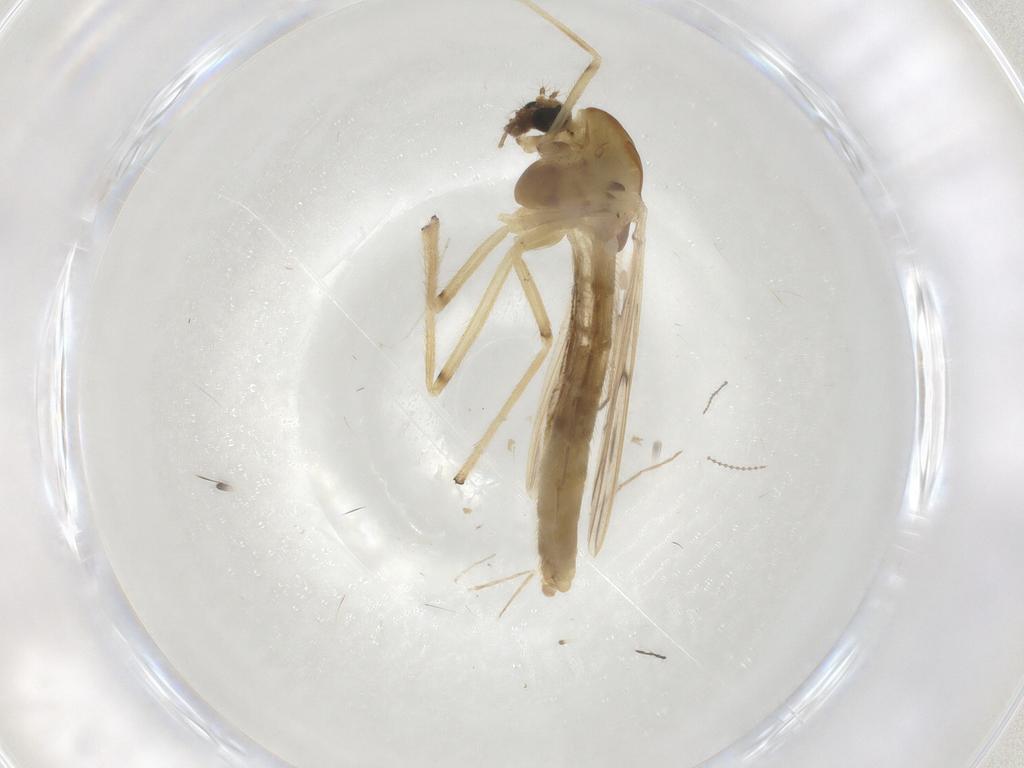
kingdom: Animalia
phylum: Arthropoda
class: Insecta
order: Diptera
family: Chironomidae
